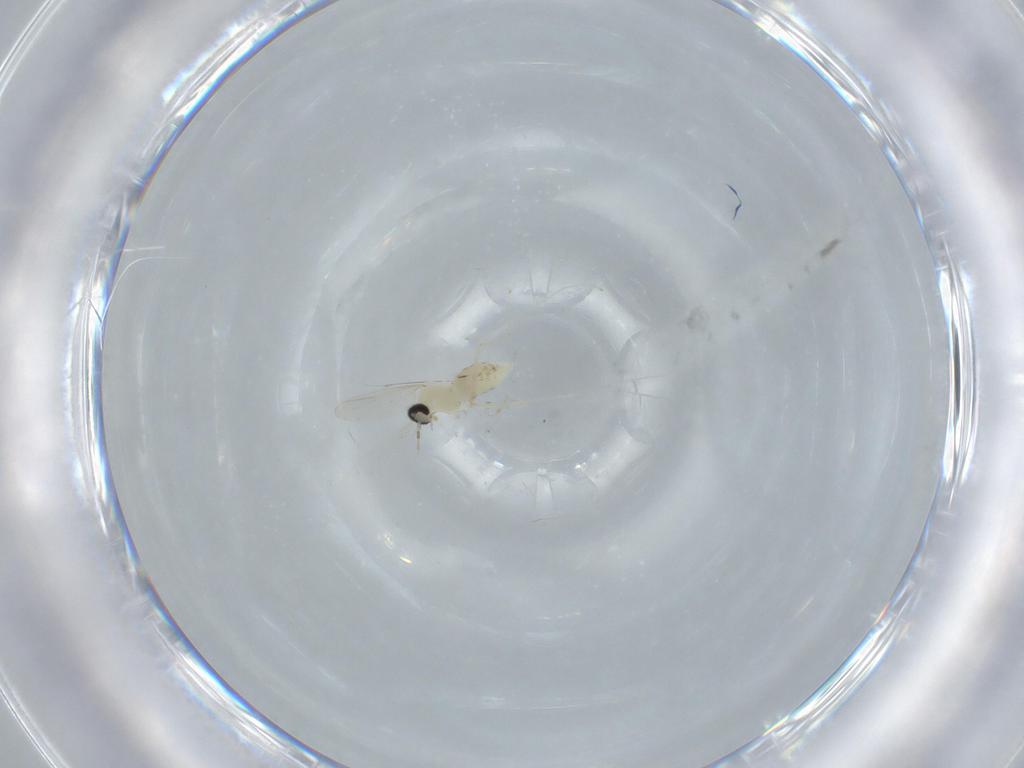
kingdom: Animalia
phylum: Arthropoda
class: Insecta
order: Diptera
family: Cecidomyiidae
